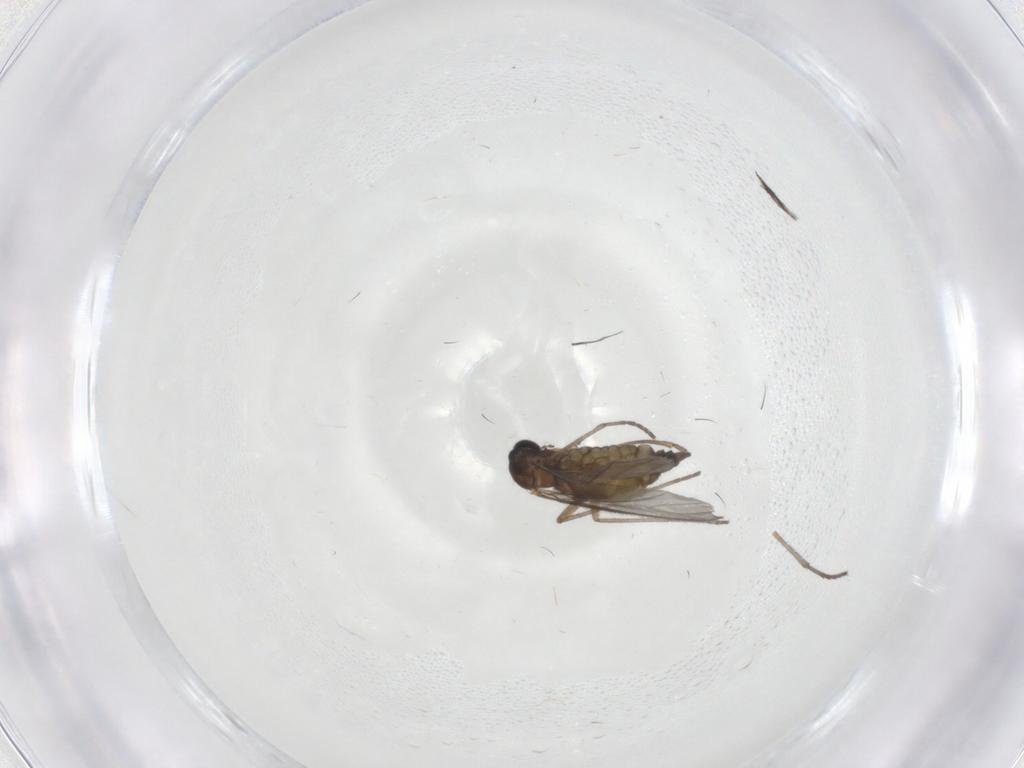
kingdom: Animalia
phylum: Arthropoda
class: Insecta
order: Diptera
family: Sciaridae
